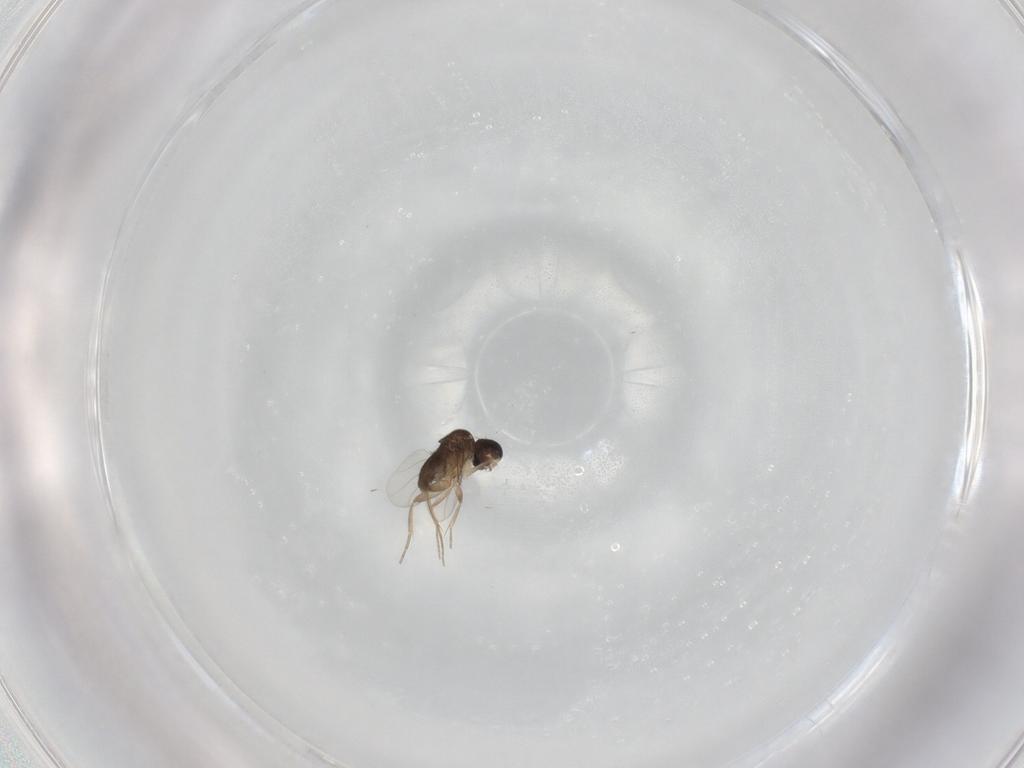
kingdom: Animalia
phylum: Arthropoda
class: Insecta
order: Diptera
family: Phoridae
